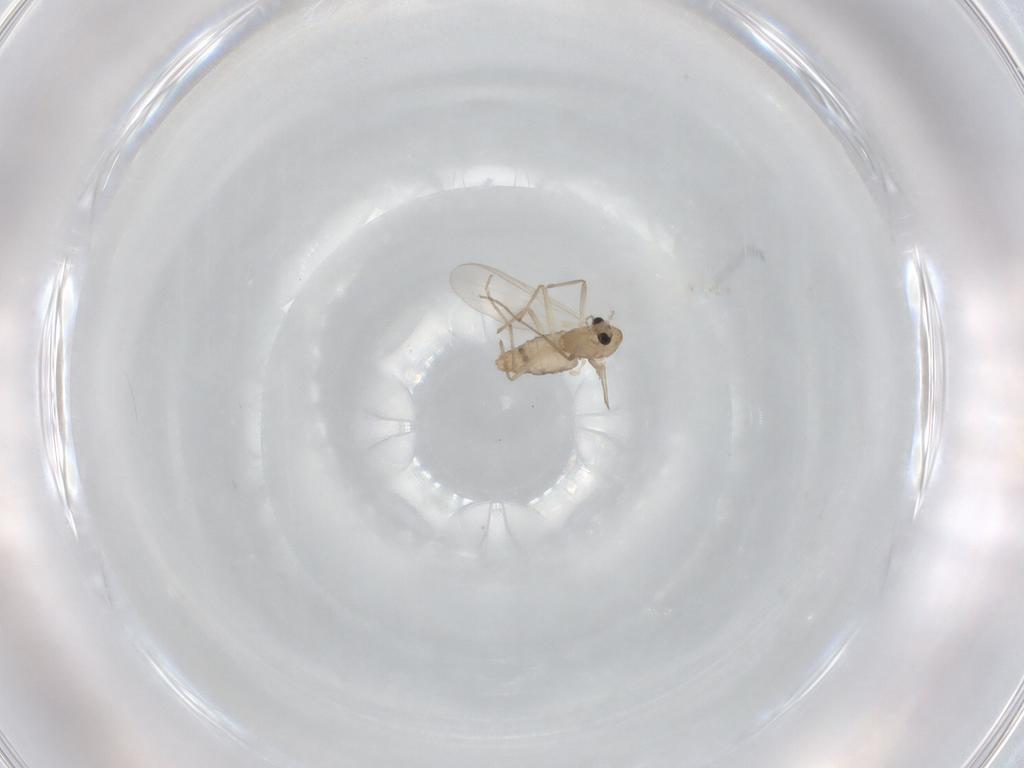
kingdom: Animalia
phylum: Arthropoda
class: Insecta
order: Diptera
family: Chironomidae
